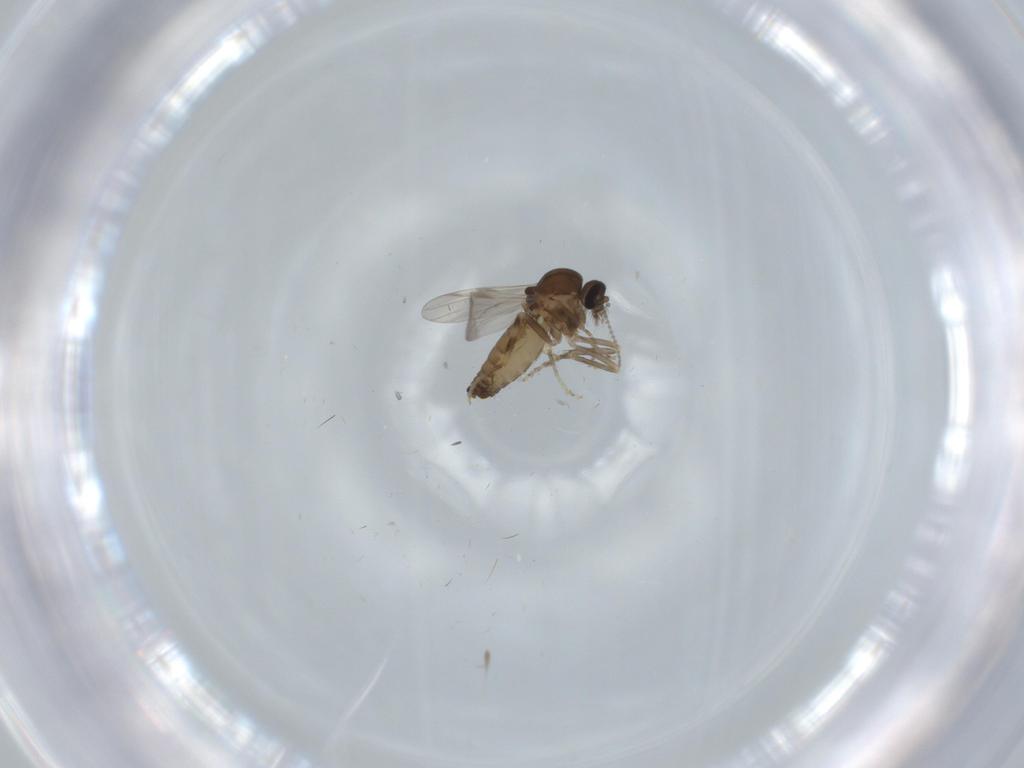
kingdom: Animalia
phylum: Arthropoda
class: Insecta
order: Diptera
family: Ceratopogonidae
